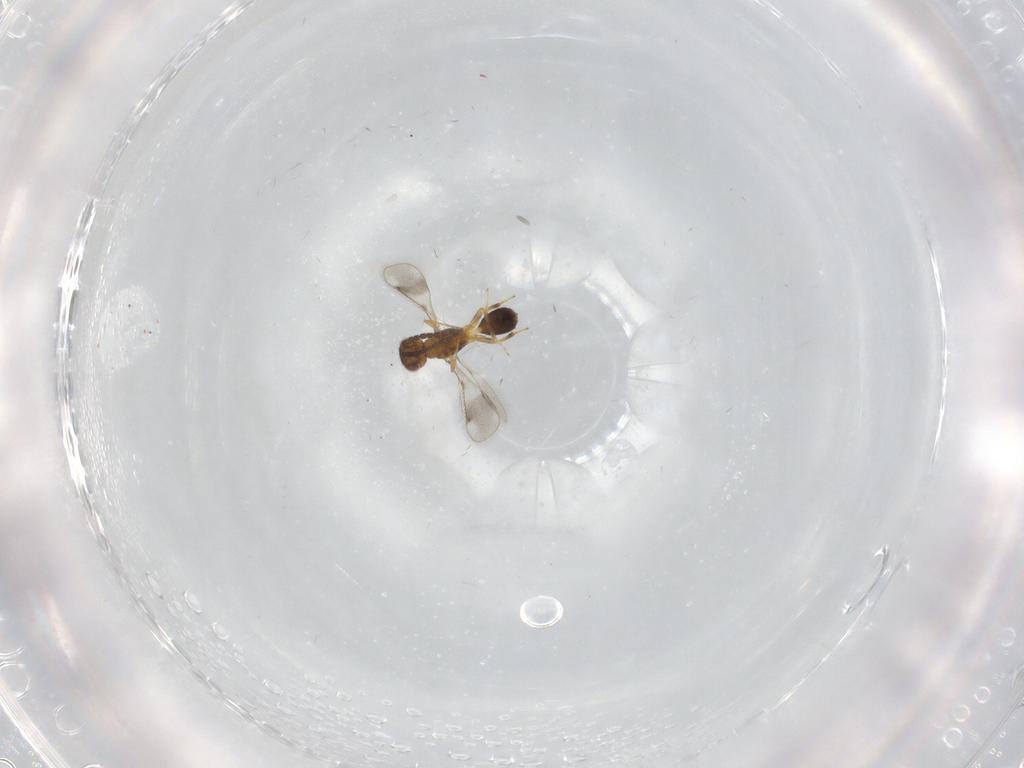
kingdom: Animalia
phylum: Arthropoda
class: Insecta
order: Hymenoptera
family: Pteromalidae
